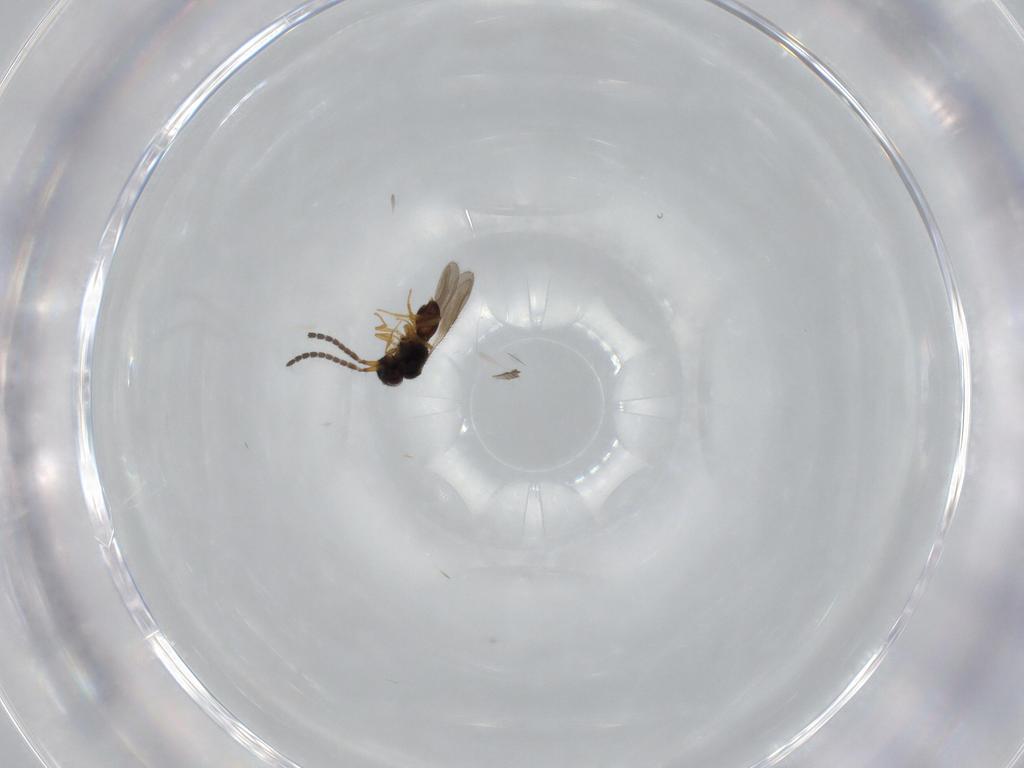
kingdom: Animalia
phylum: Arthropoda
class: Insecta
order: Hymenoptera
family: Ceraphronidae
